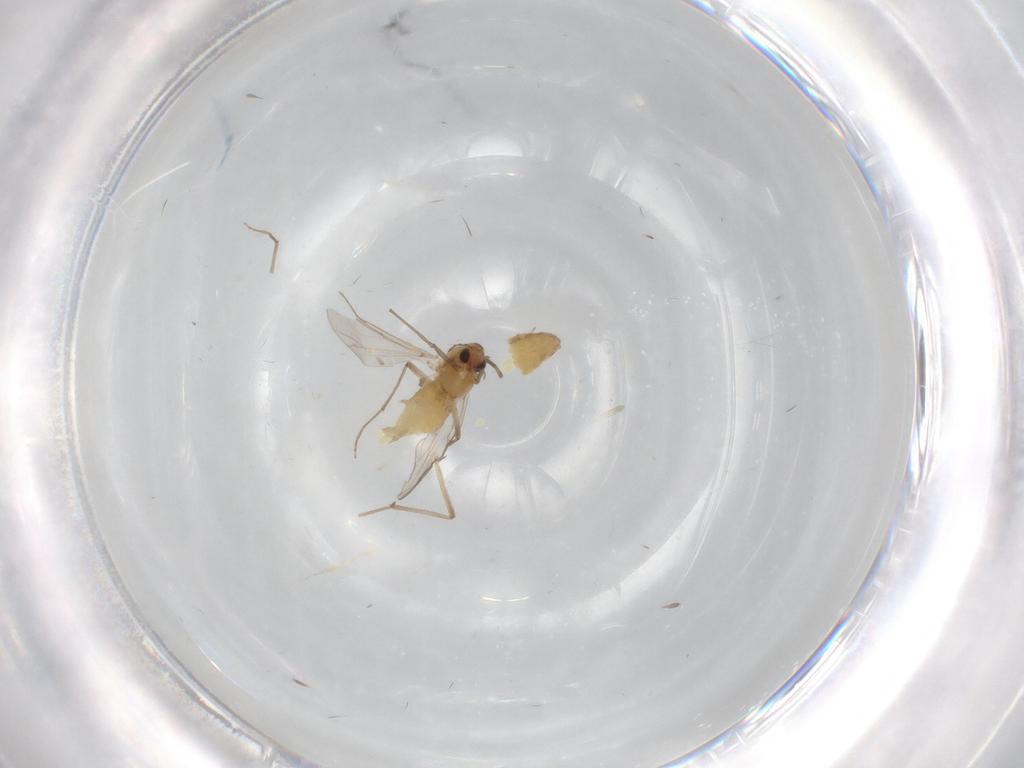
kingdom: Animalia
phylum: Arthropoda
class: Insecta
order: Diptera
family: Chironomidae
